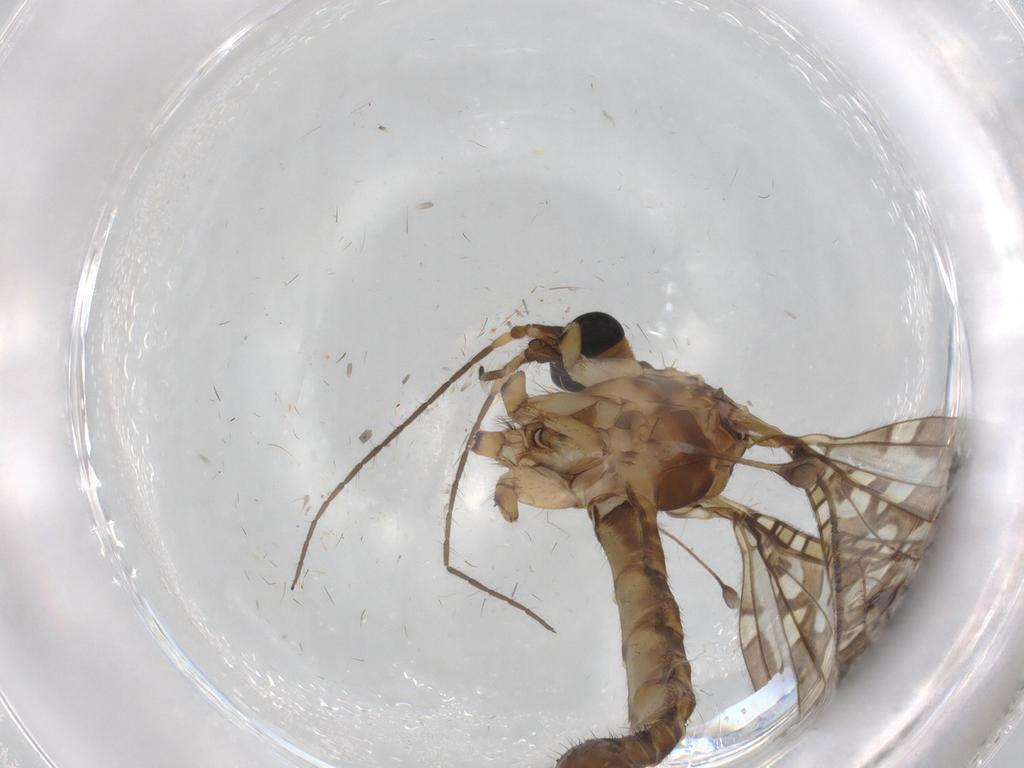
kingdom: Animalia
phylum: Arthropoda
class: Insecta
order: Diptera
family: Sciaridae
